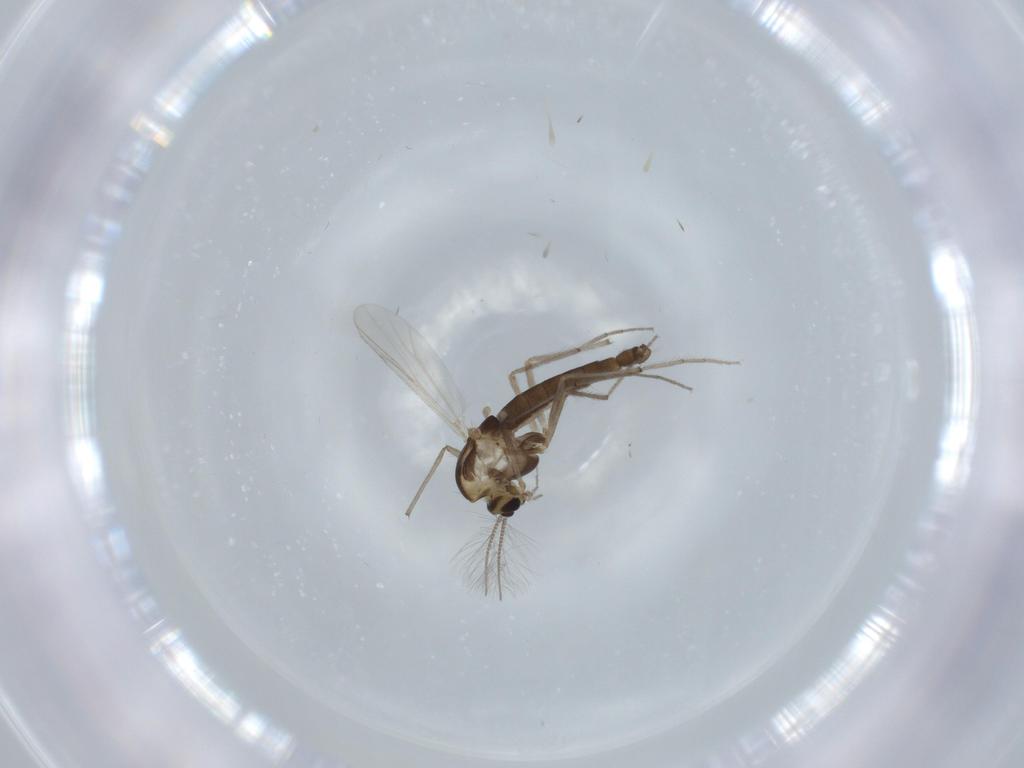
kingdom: Animalia
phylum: Arthropoda
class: Insecta
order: Diptera
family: Chironomidae
